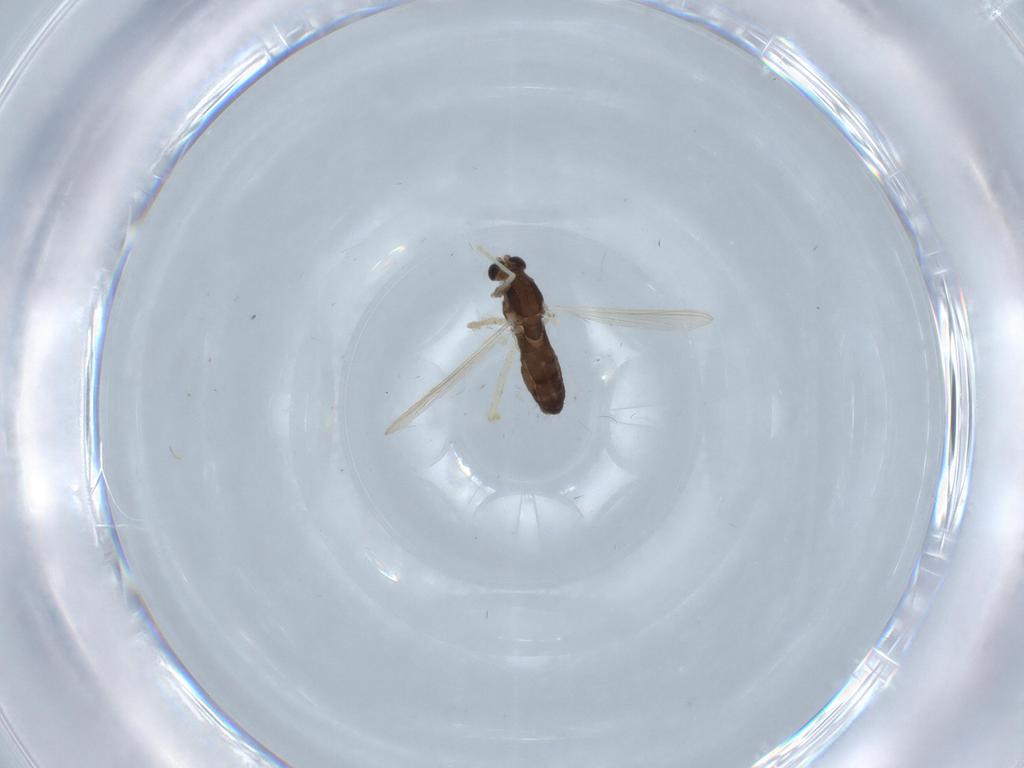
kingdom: Animalia
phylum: Arthropoda
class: Insecta
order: Diptera
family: Chironomidae
